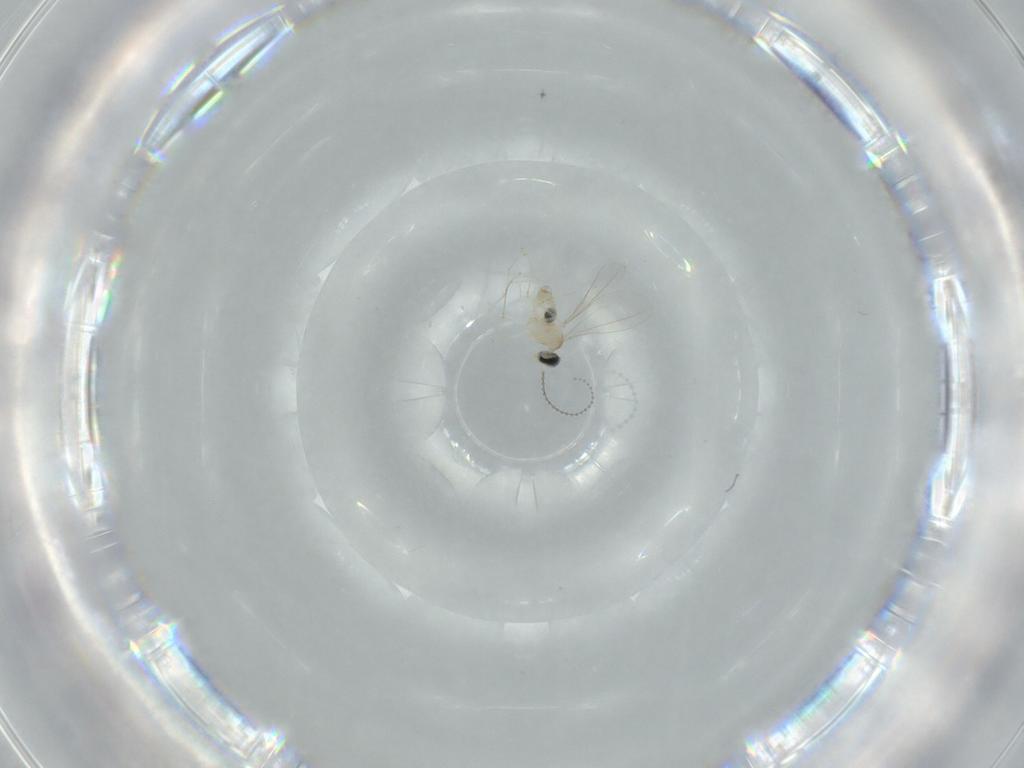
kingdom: Animalia
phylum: Arthropoda
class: Insecta
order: Diptera
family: Cecidomyiidae
